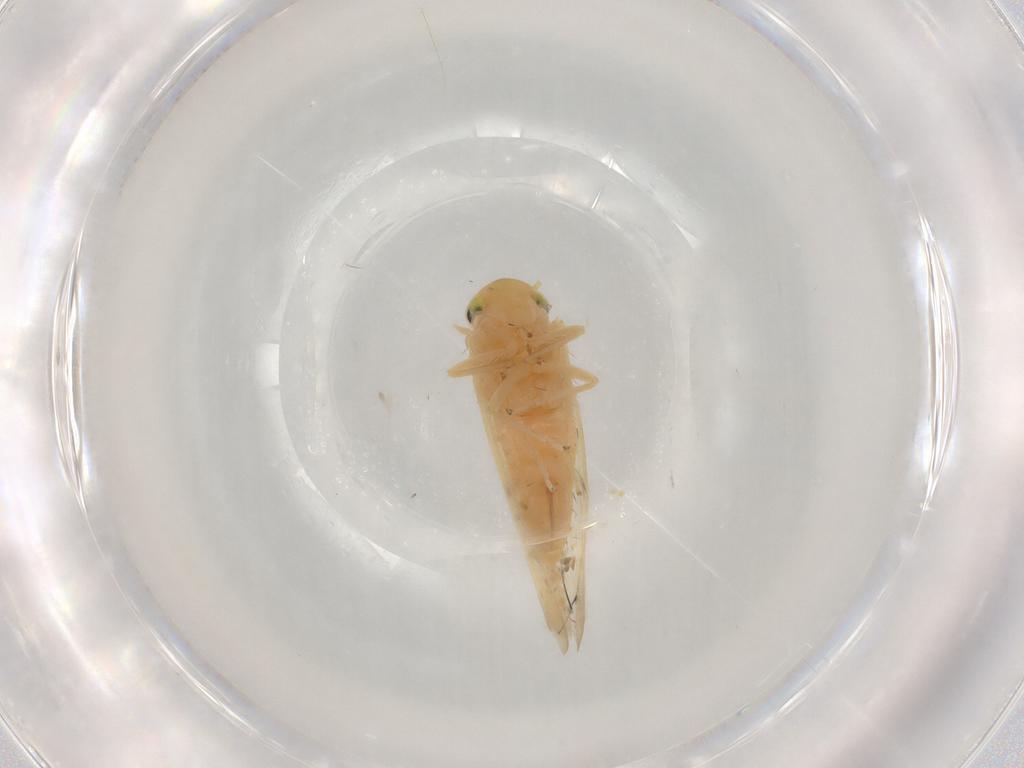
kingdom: Animalia
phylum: Arthropoda
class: Insecta
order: Hemiptera
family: Cicadellidae
